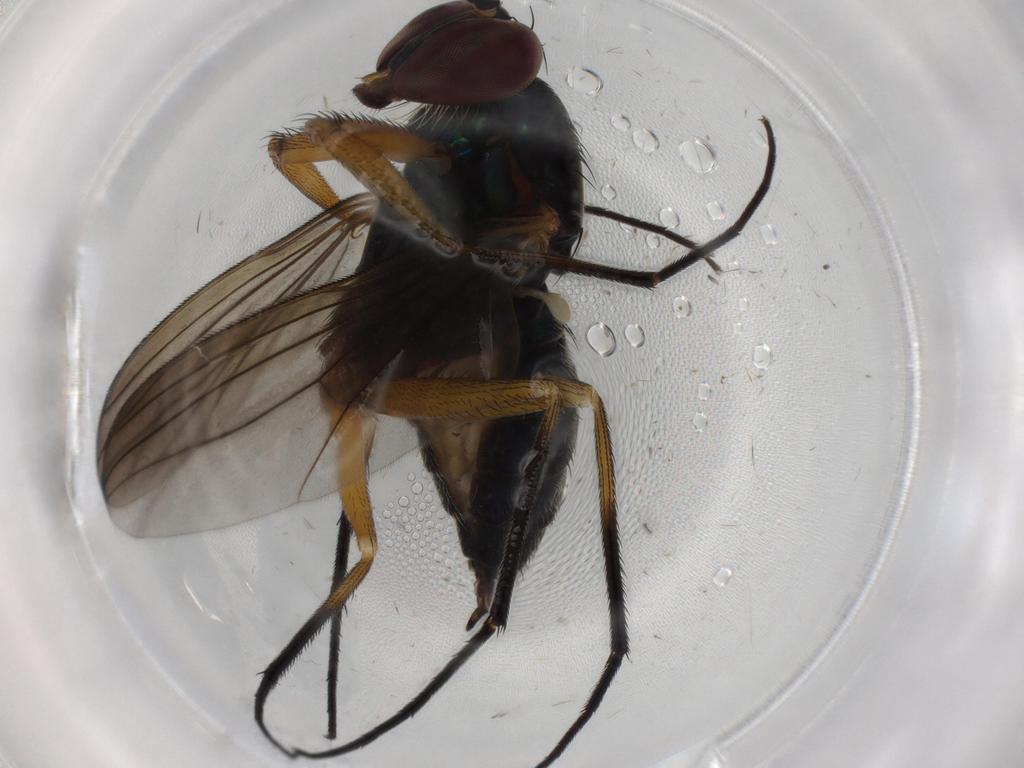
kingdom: Animalia
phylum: Arthropoda
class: Insecta
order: Diptera
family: Dolichopodidae
